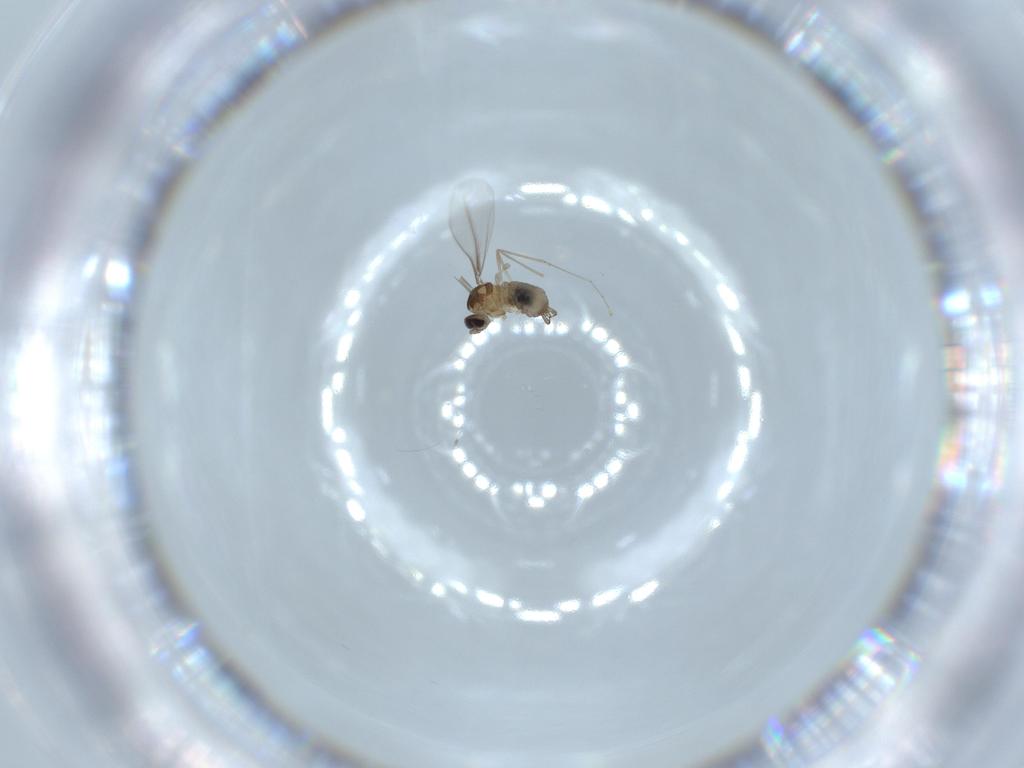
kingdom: Animalia
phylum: Arthropoda
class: Insecta
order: Diptera
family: Cecidomyiidae
